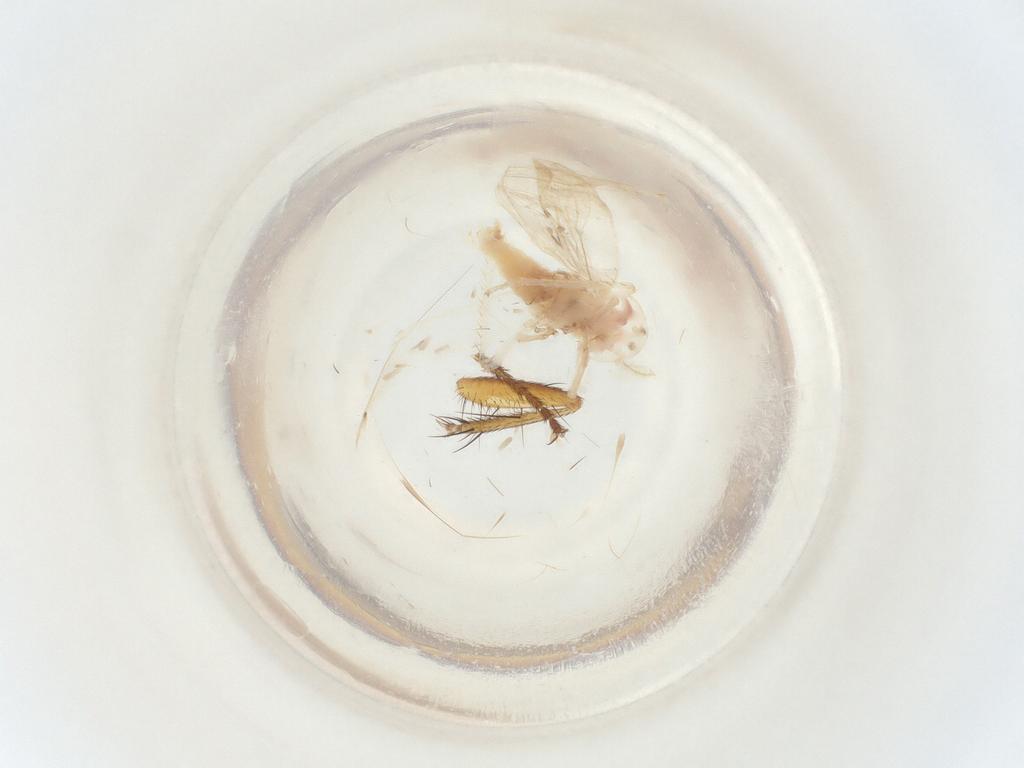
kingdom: Animalia
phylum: Arthropoda
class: Insecta
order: Hemiptera
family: Cicadellidae
